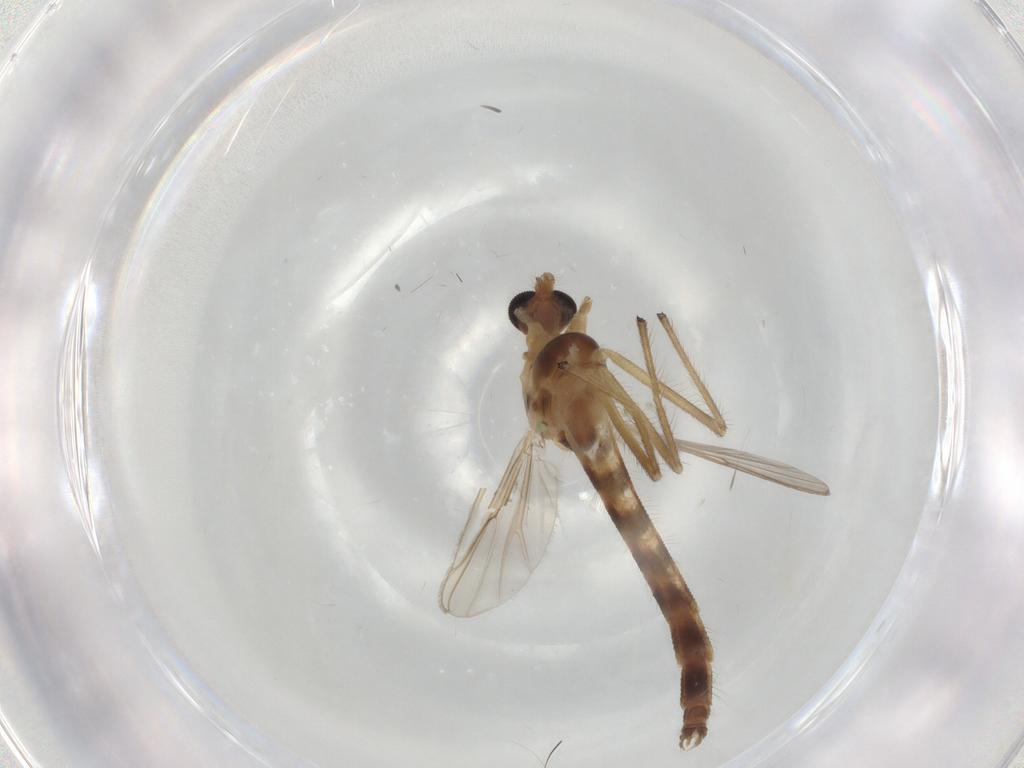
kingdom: Animalia
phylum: Arthropoda
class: Insecta
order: Diptera
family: Chironomidae
